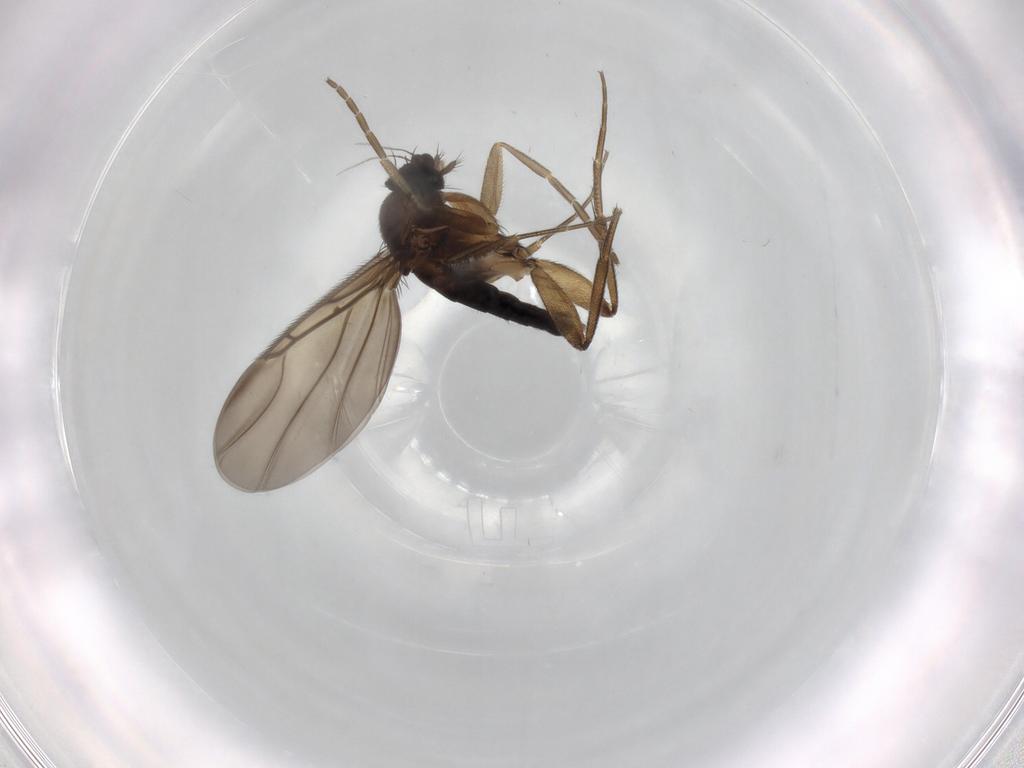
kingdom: Animalia
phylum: Arthropoda
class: Insecta
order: Diptera
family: Phoridae
